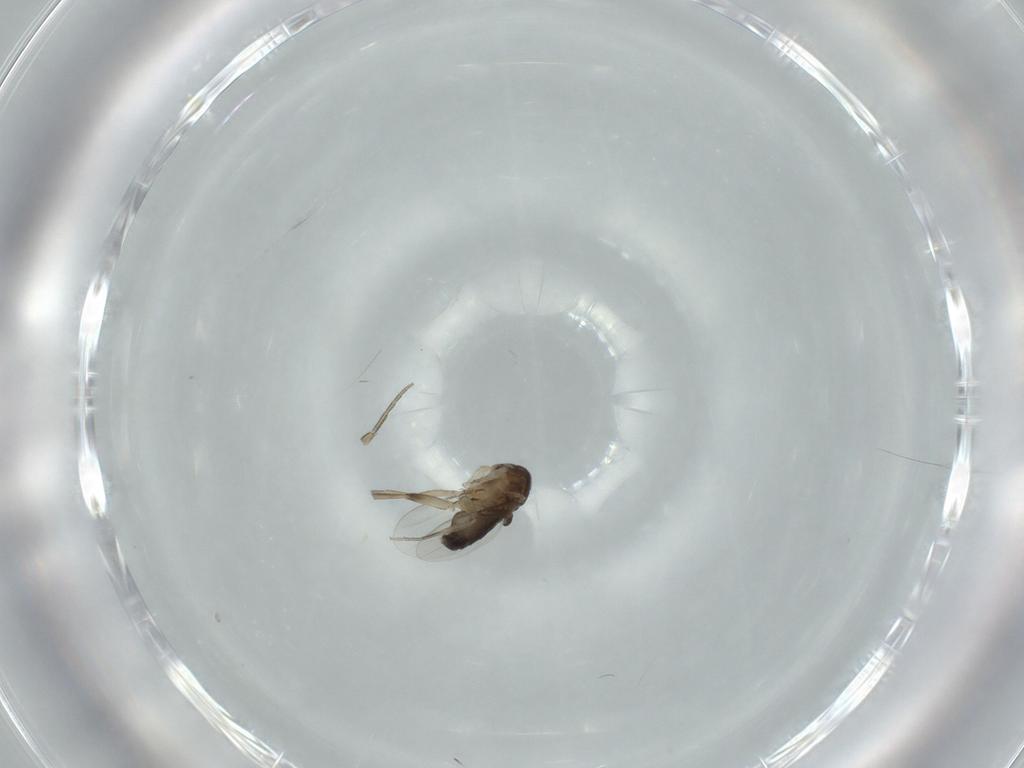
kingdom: Animalia
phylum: Arthropoda
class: Insecta
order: Diptera
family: Phoridae
